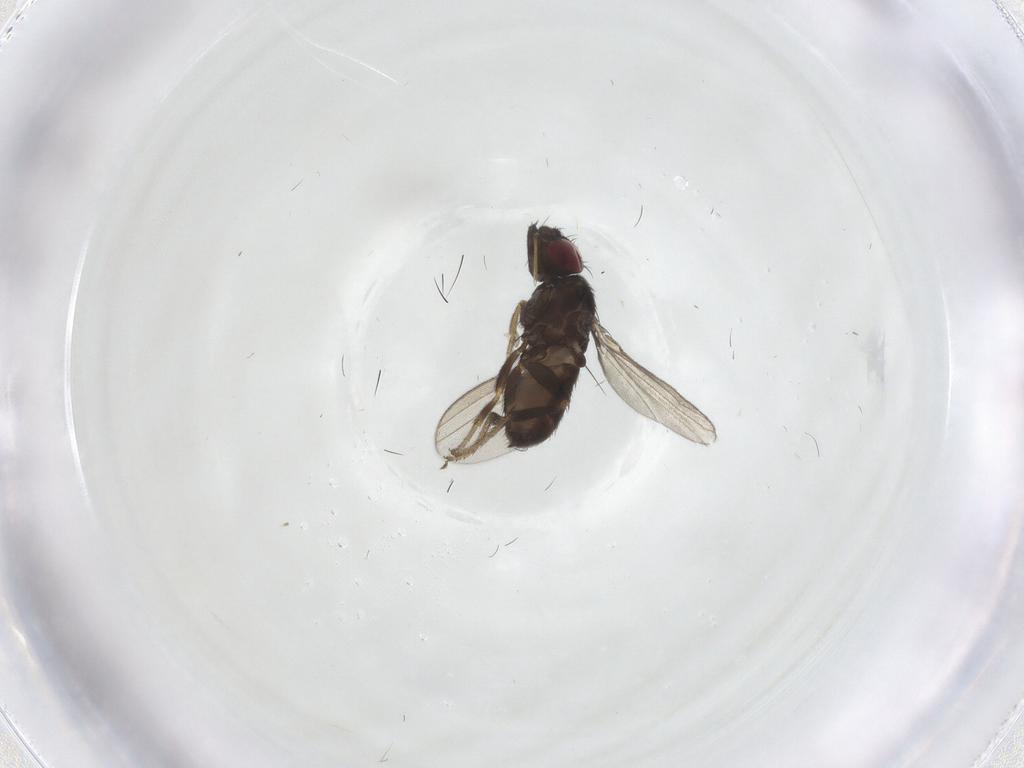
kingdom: Animalia
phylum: Arthropoda
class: Insecta
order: Diptera
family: Milichiidae
